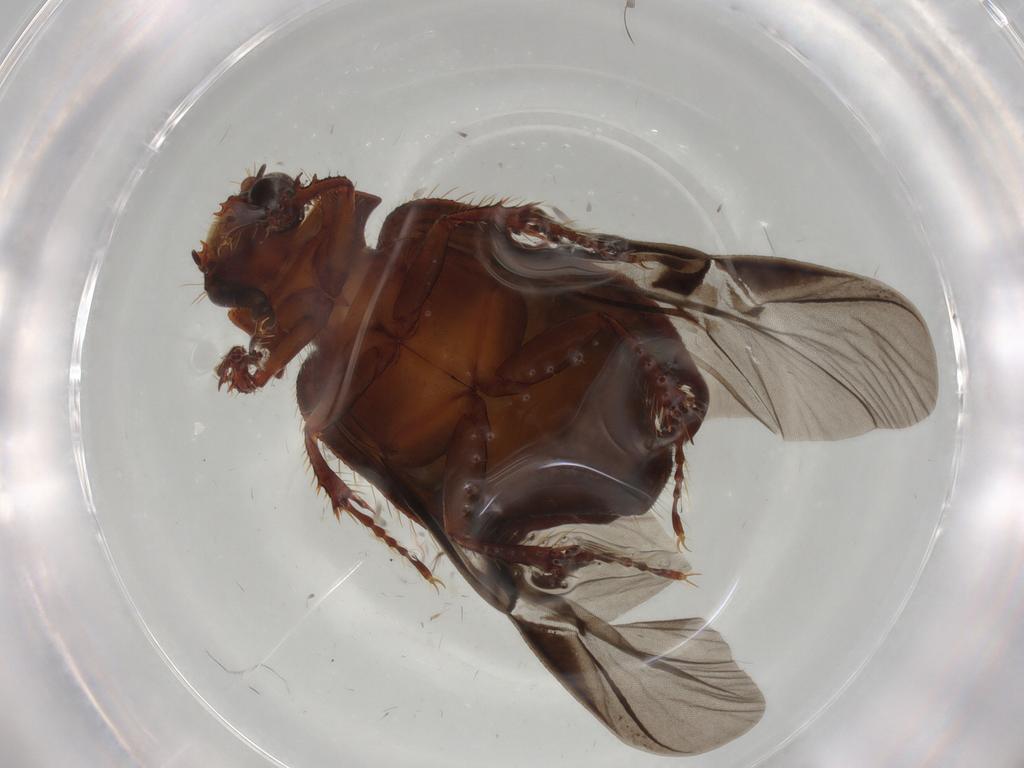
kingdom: Animalia
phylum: Arthropoda
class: Insecta
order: Coleoptera
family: Hybosoridae
